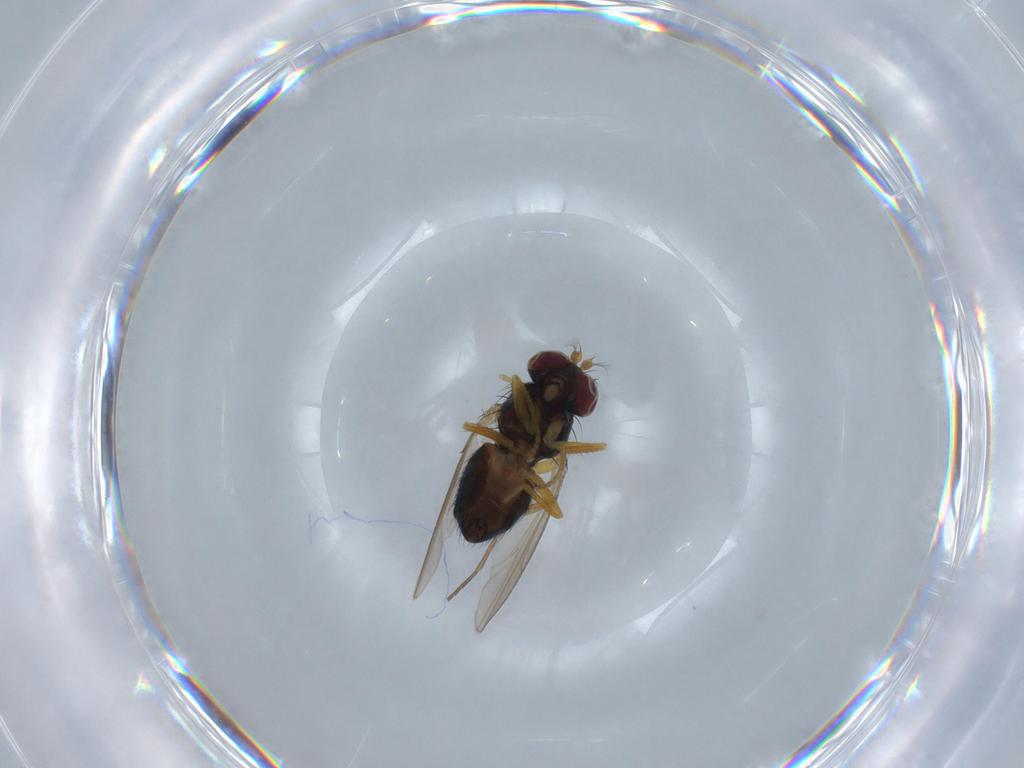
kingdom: Animalia
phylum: Arthropoda
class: Insecta
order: Diptera
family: Ephydridae
